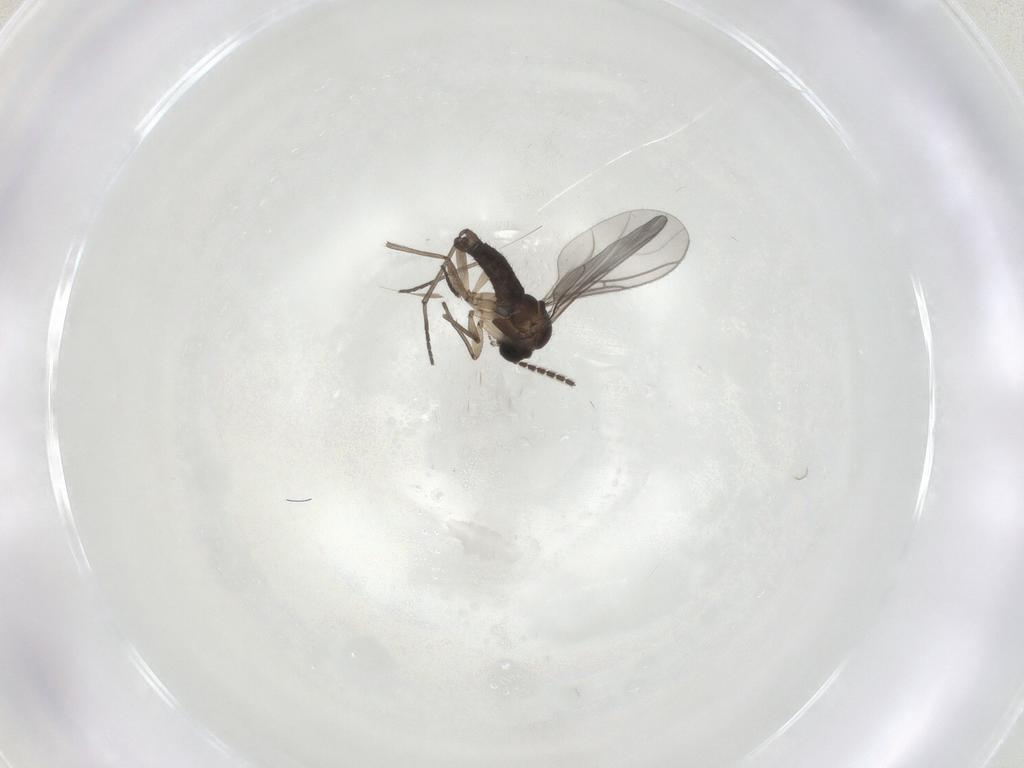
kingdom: Animalia
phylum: Arthropoda
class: Insecta
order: Diptera
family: Sciaridae
